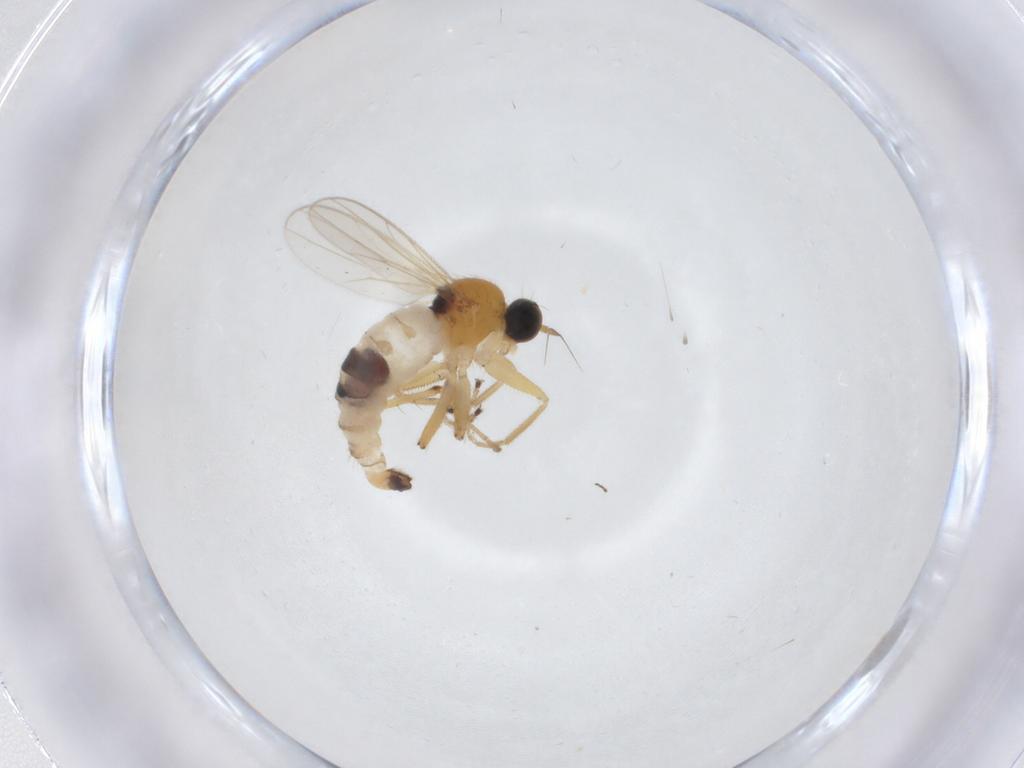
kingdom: Animalia
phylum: Arthropoda
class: Insecta
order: Diptera
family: Hybotidae
